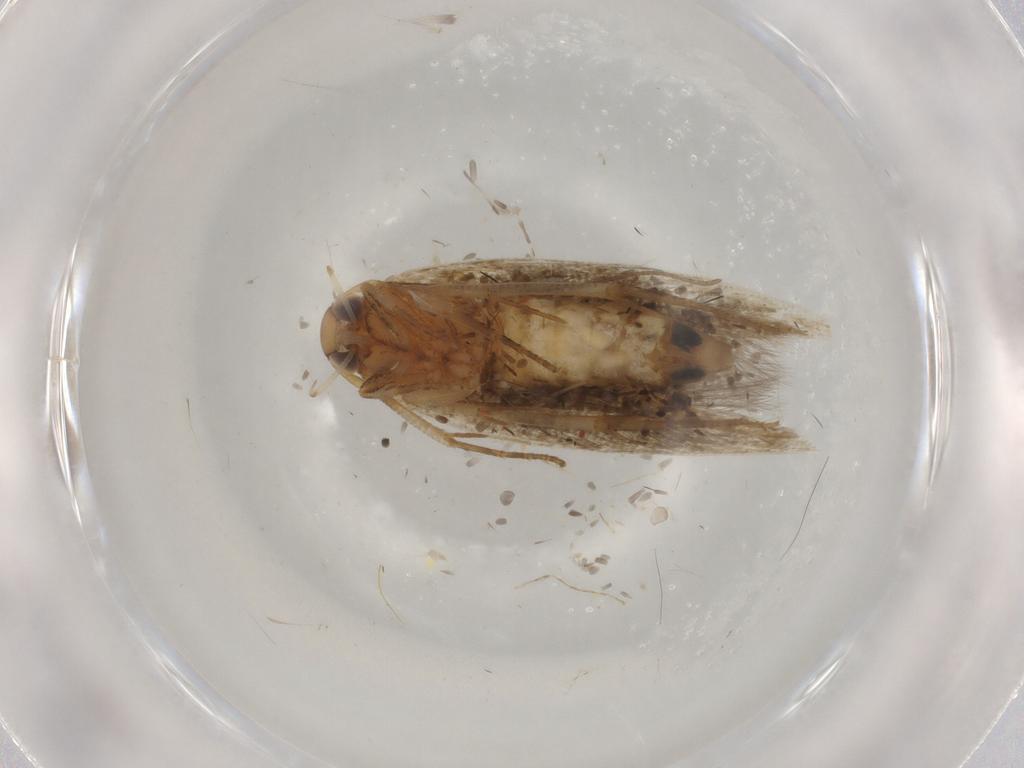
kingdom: Animalia
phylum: Arthropoda
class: Insecta
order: Lepidoptera
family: Cosmopterigidae
